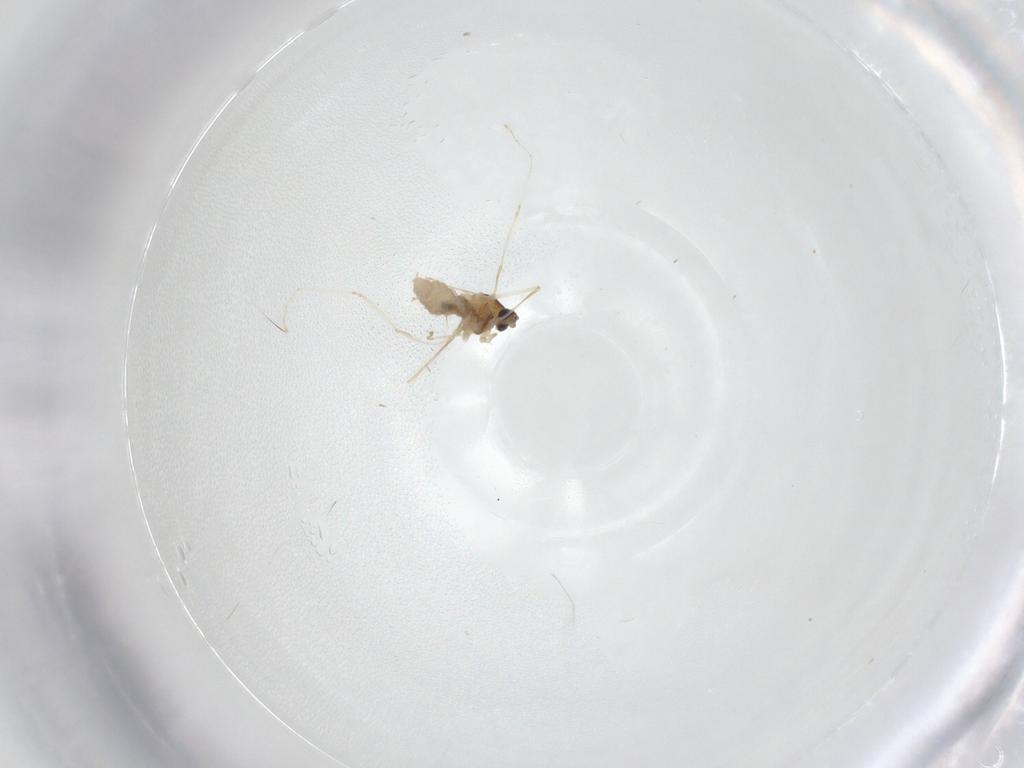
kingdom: Animalia
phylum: Arthropoda
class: Insecta
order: Diptera
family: Cecidomyiidae
